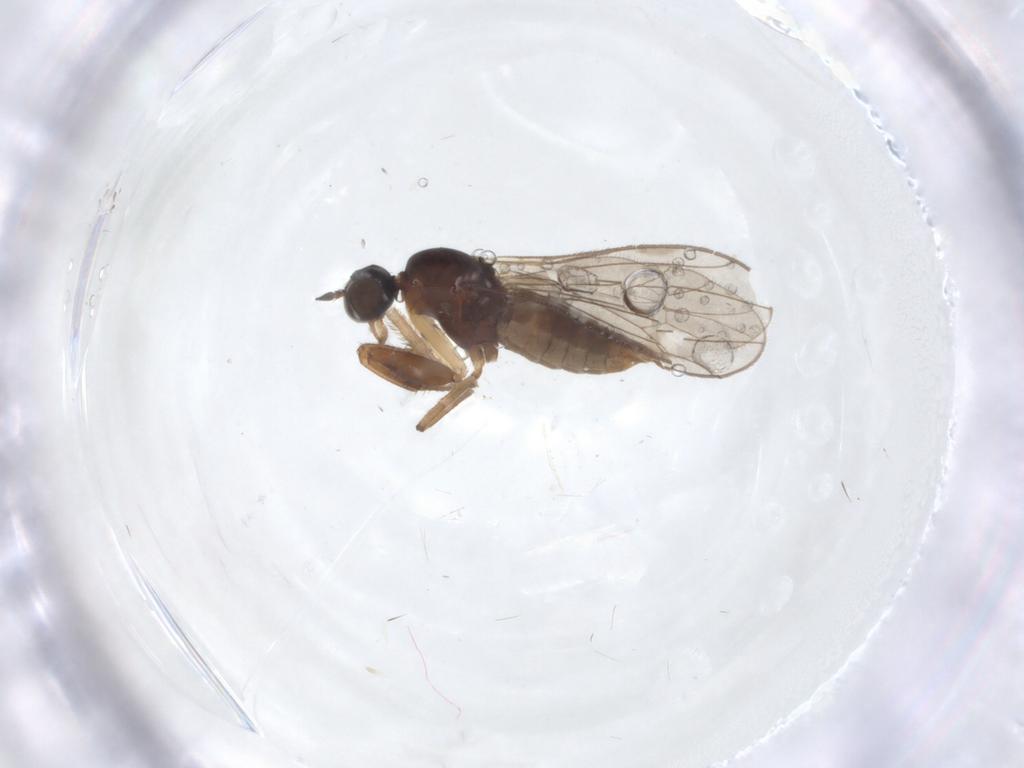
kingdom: Animalia
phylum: Arthropoda
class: Insecta
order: Diptera
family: Empididae
